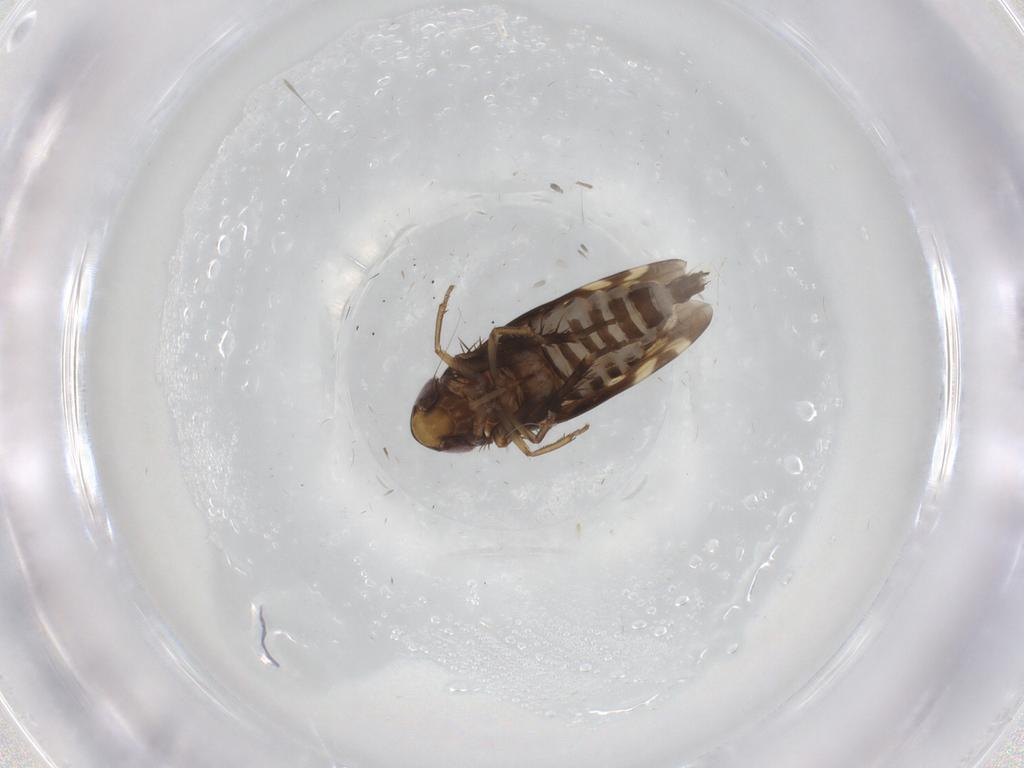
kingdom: Animalia
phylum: Arthropoda
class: Insecta
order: Hemiptera
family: Cicadellidae
